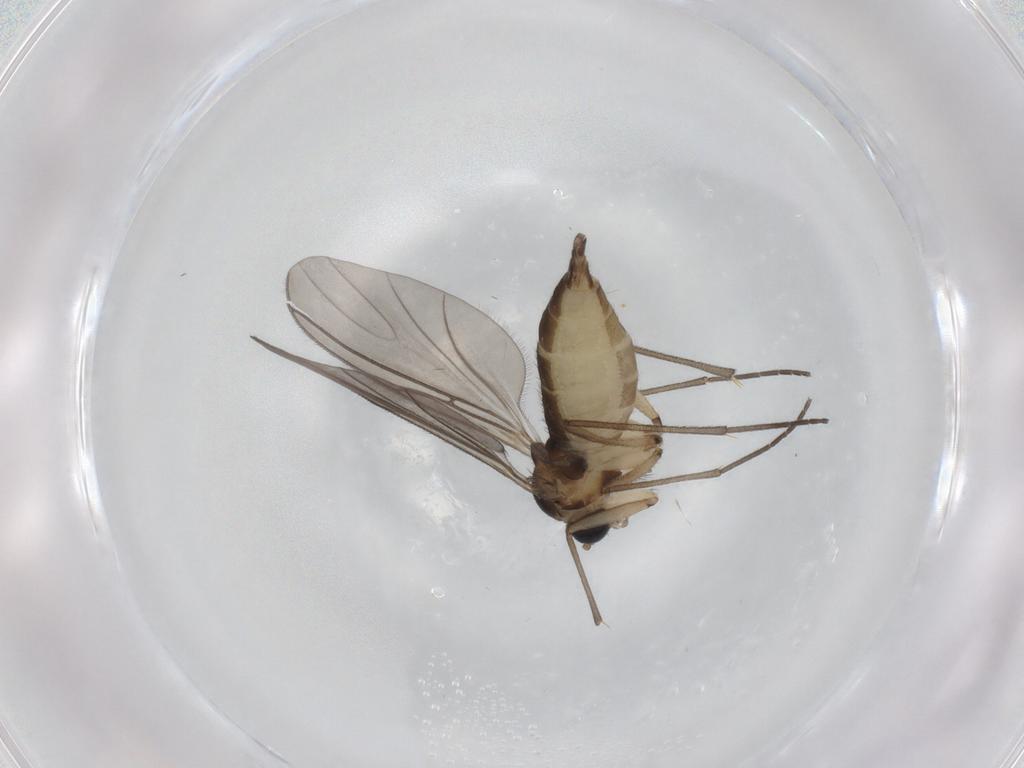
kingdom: Animalia
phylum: Arthropoda
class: Insecta
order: Diptera
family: Sciaridae
